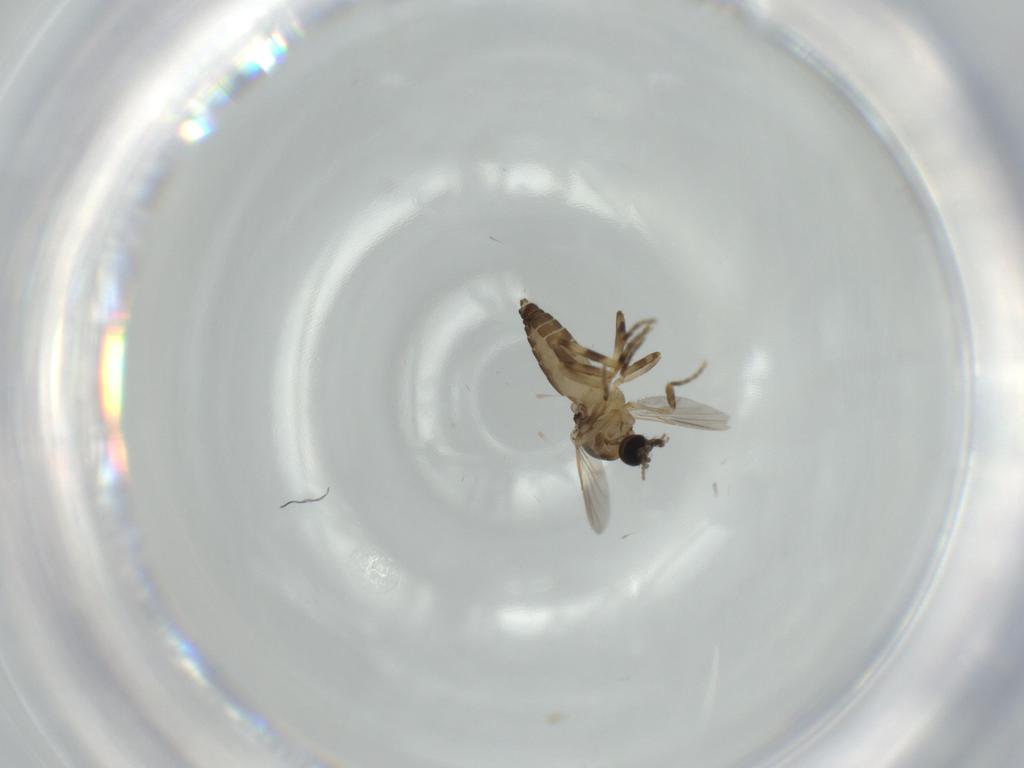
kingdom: Animalia
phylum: Arthropoda
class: Insecta
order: Diptera
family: Ceratopogonidae
